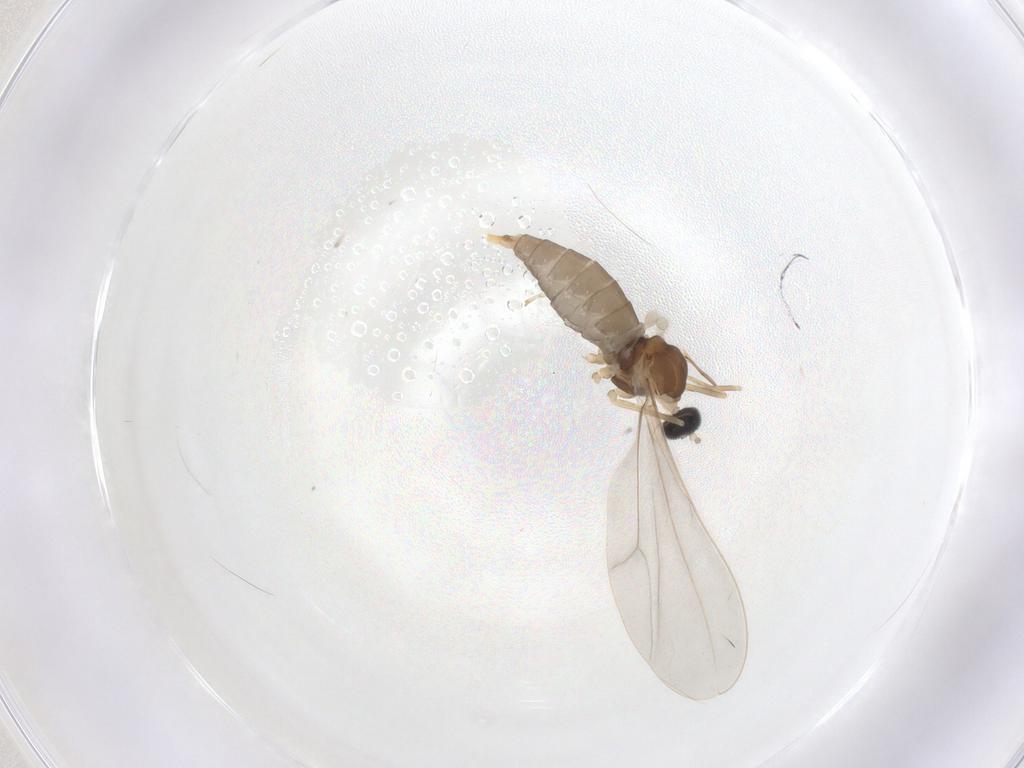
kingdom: Animalia
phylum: Arthropoda
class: Insecta
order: Diptera
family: Cecidomyiidae
